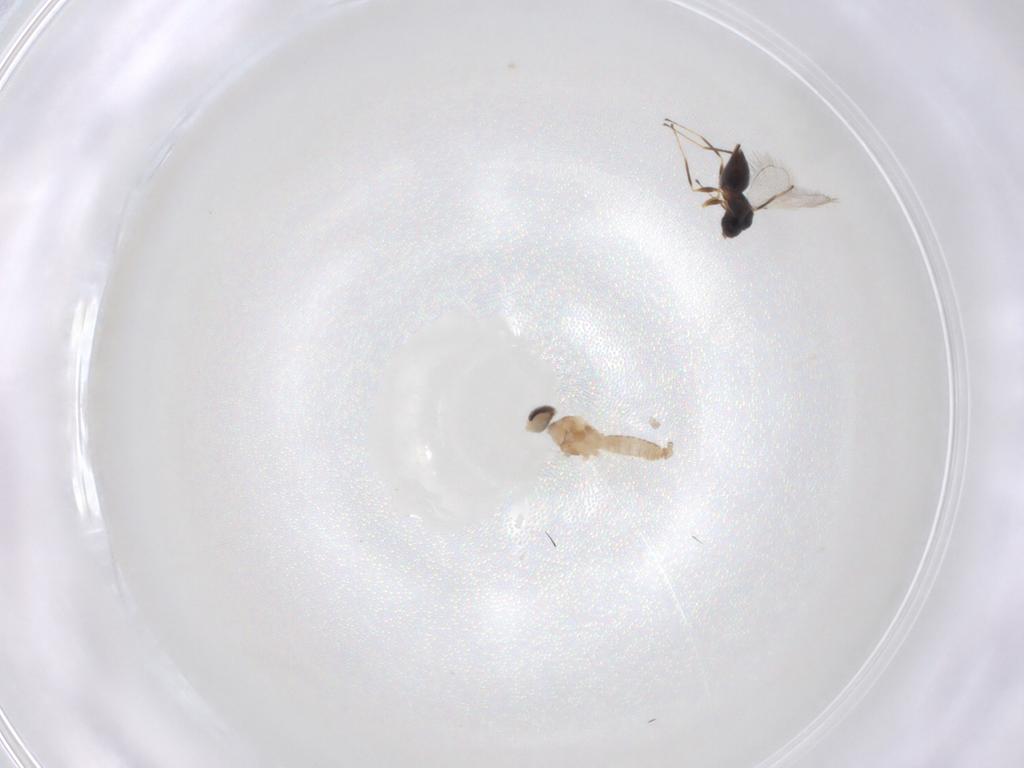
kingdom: Animalia
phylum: Arthropoda
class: Insecta
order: Diptera
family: Cecidomyiidae
